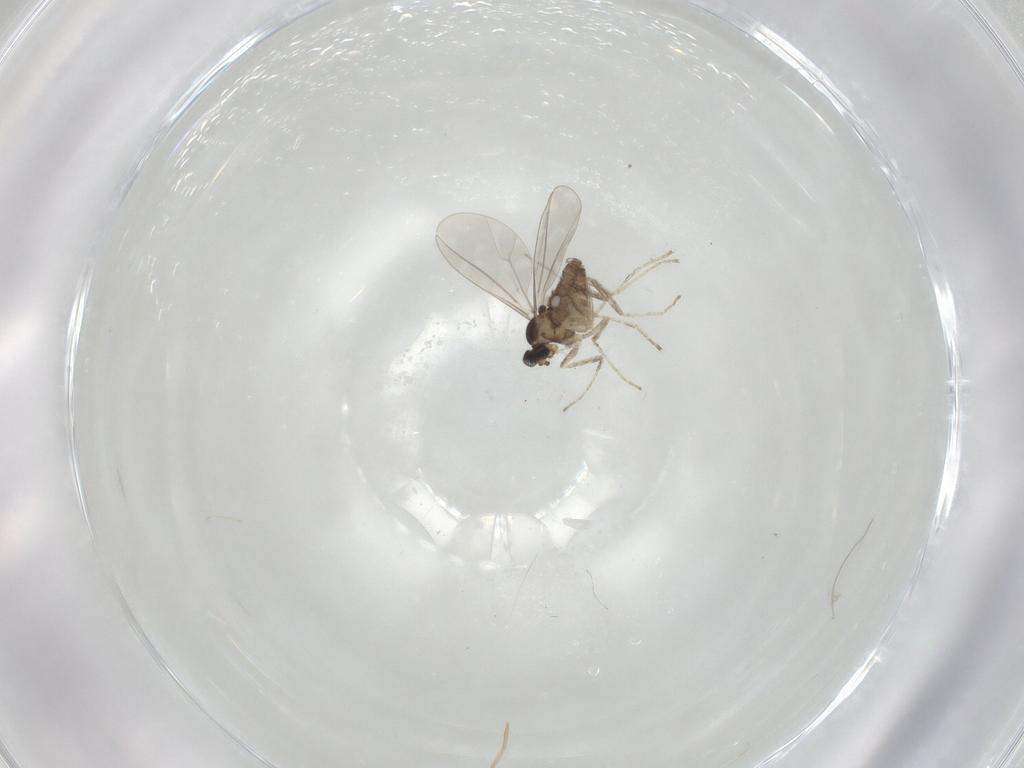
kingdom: Animalia
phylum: Arthropoda
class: Insecta
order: Diptera
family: Cecidomyiidae
